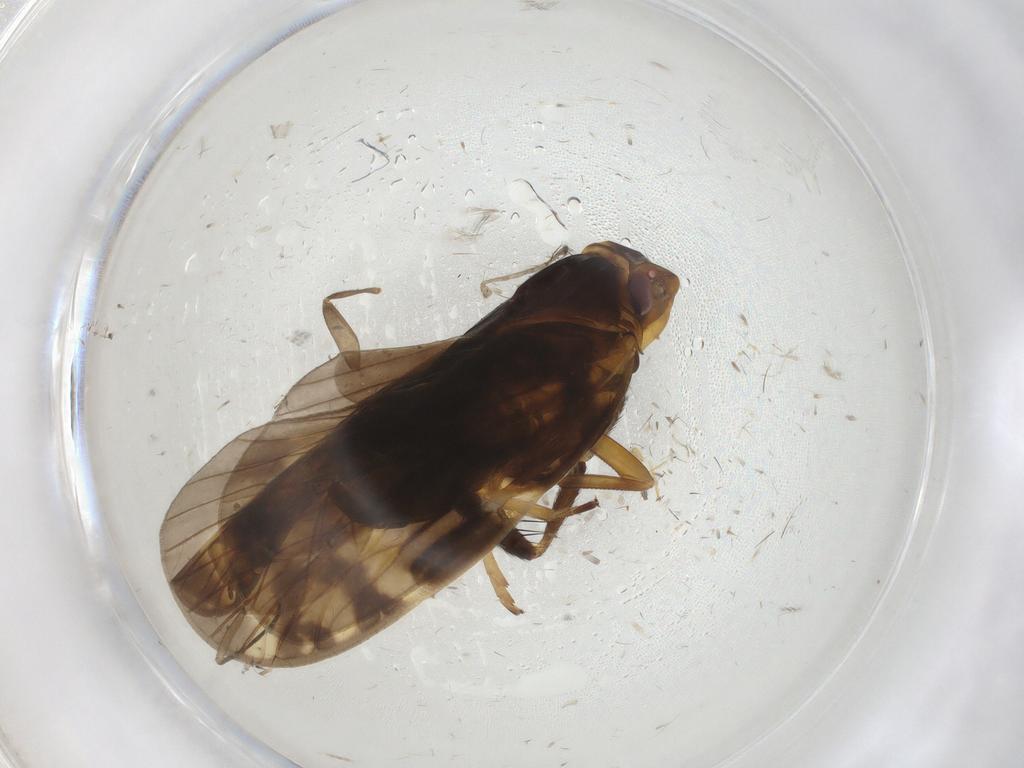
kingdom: Animalia
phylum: Arthropoda
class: Insecta
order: Hemiptera
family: Cixiidae
